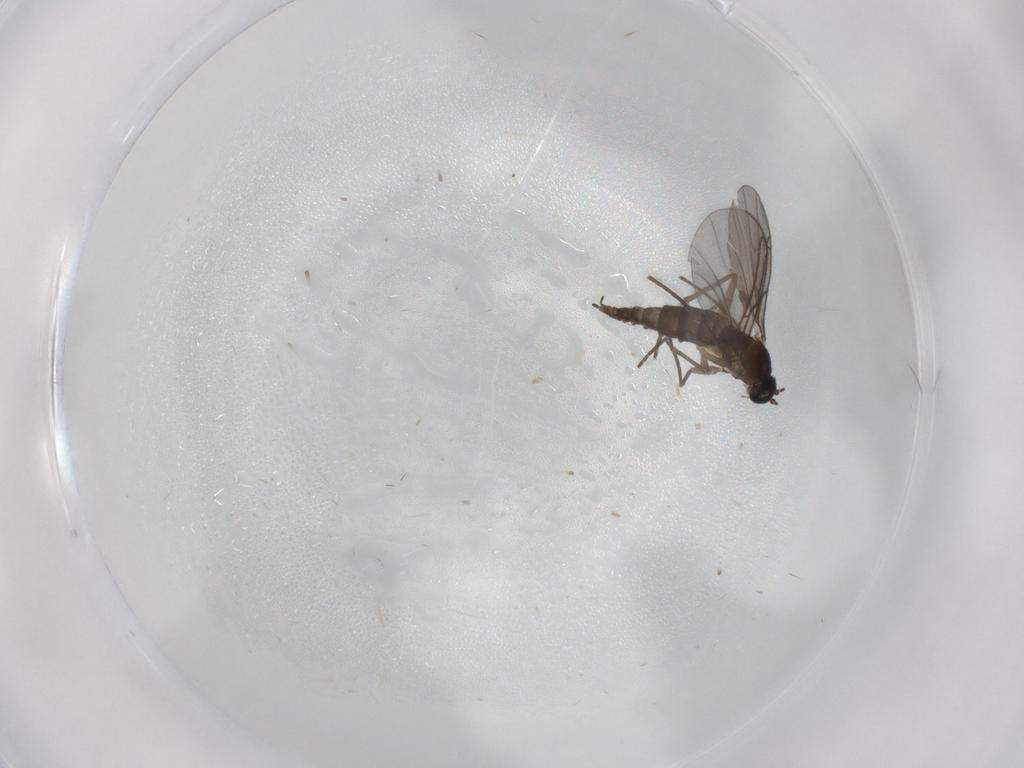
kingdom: Animalia
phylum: Arthropoda
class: Insecta
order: Diptera
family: Sciaridae
